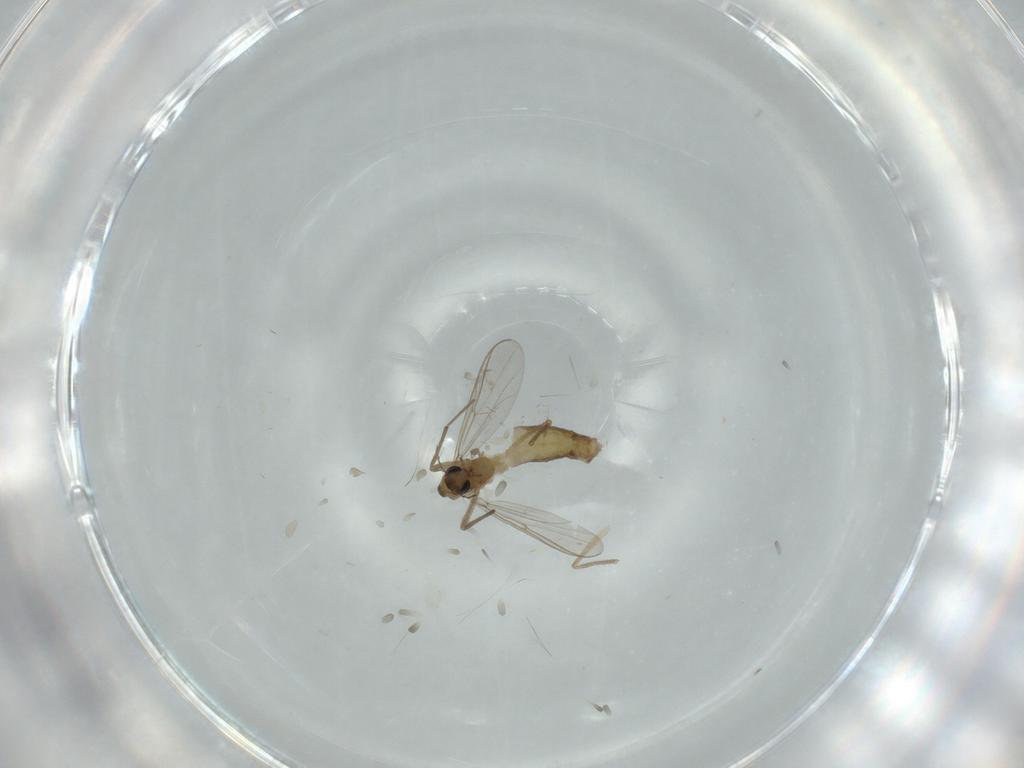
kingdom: Animalia
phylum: Arthropoda
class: Insecta
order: Diptera
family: Chironomidae
